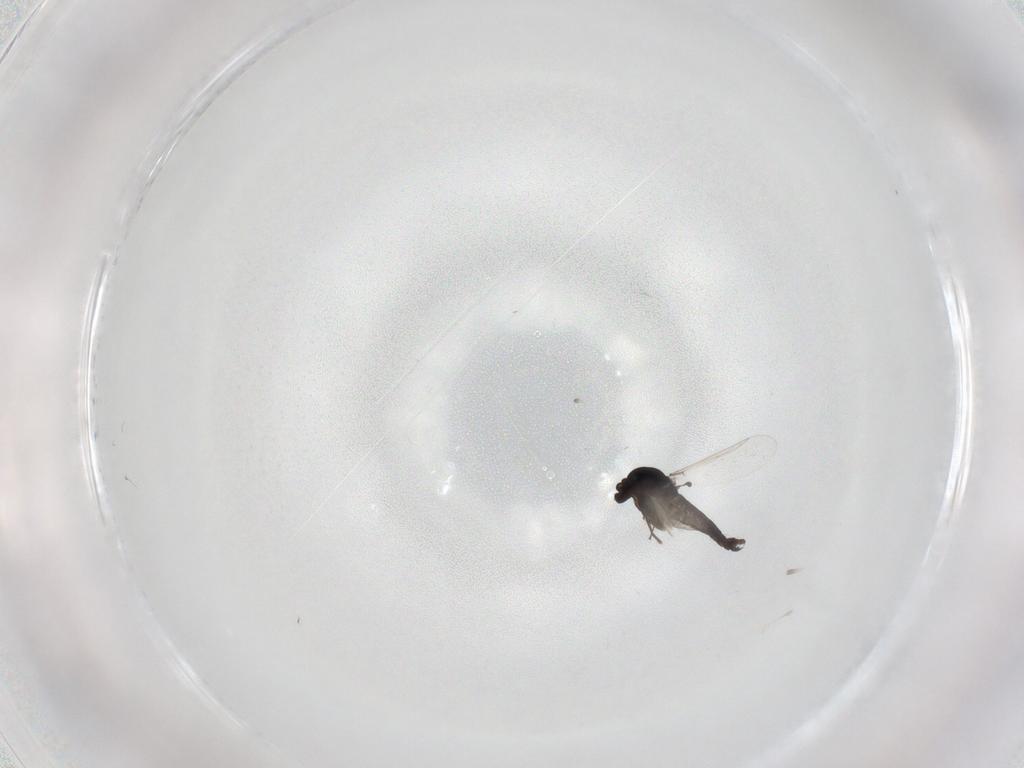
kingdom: Animalia
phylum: Arthropoda
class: Insecta
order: Diptera
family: Chironomidae
